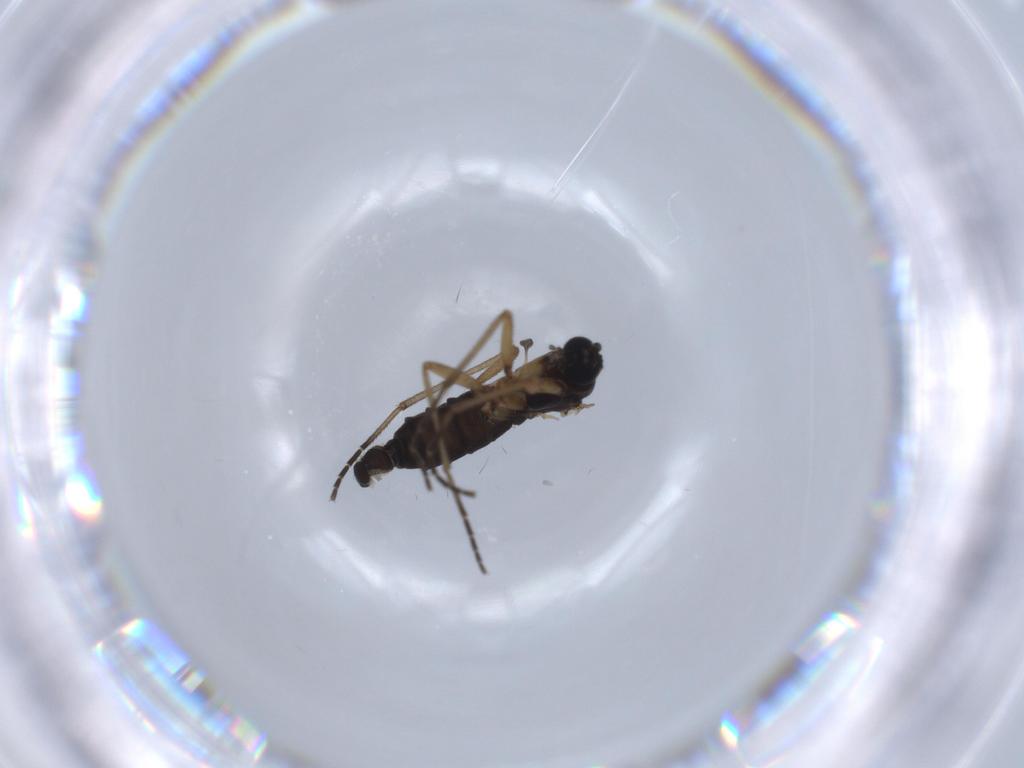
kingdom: Animalia
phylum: Arthropoda
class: Insecta
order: Diptera
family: Sciaridae
